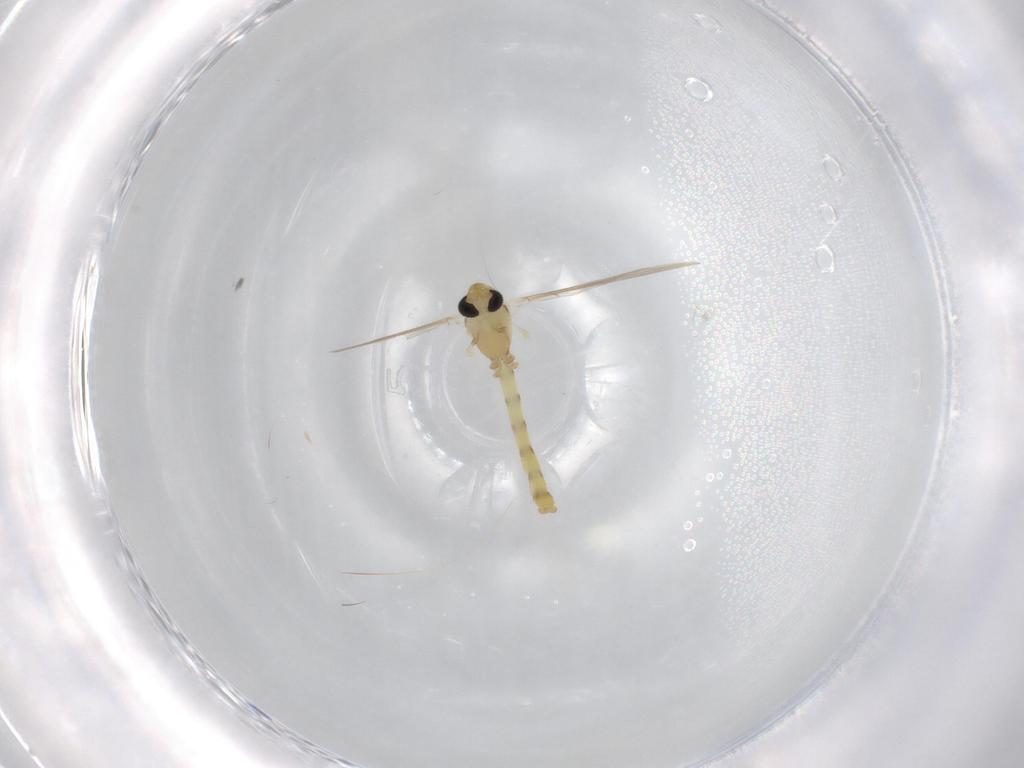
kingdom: Animalia
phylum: Arthropoda
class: Insecta
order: Diptera
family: Chironomidae
